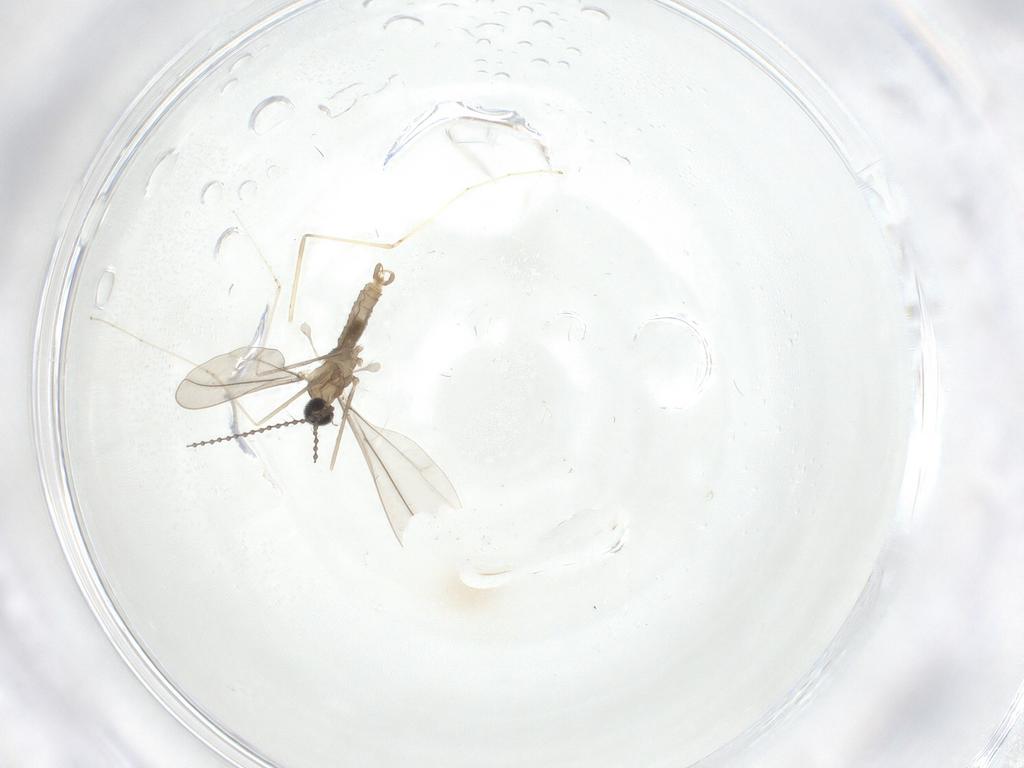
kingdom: Animalia
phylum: Arthropoda
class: Insecta
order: Diptera
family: Cecidomyiidae
